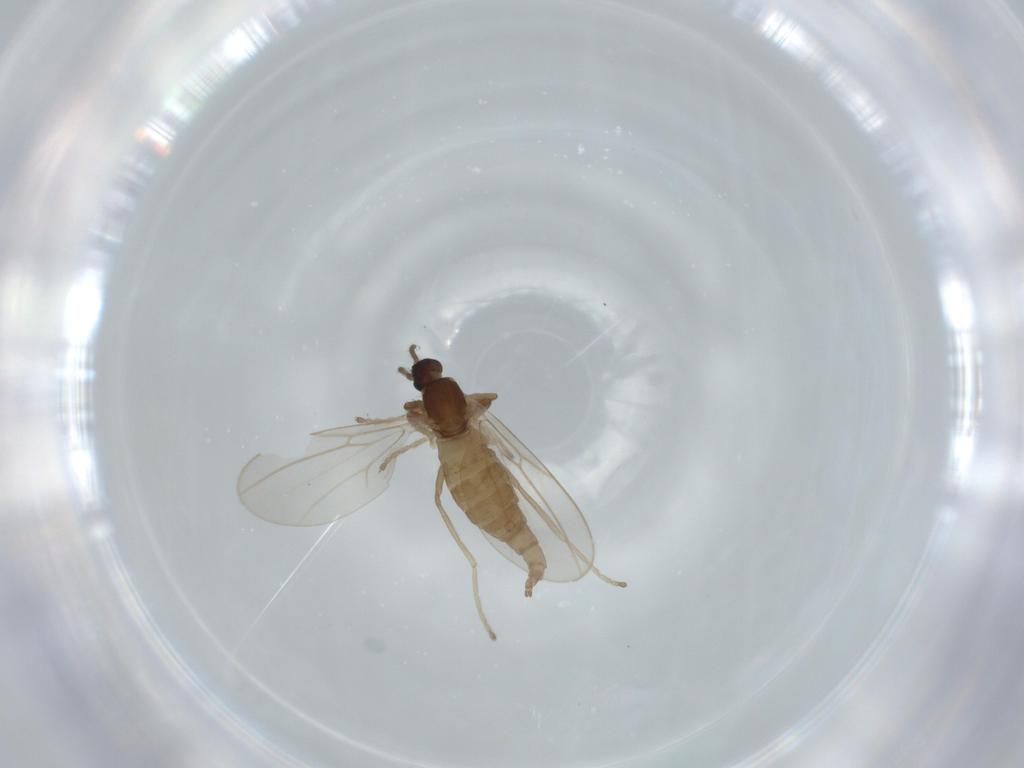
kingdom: Animalia
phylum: Arthropoda
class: Insecta
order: Diptera
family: Cecidomyiidae
